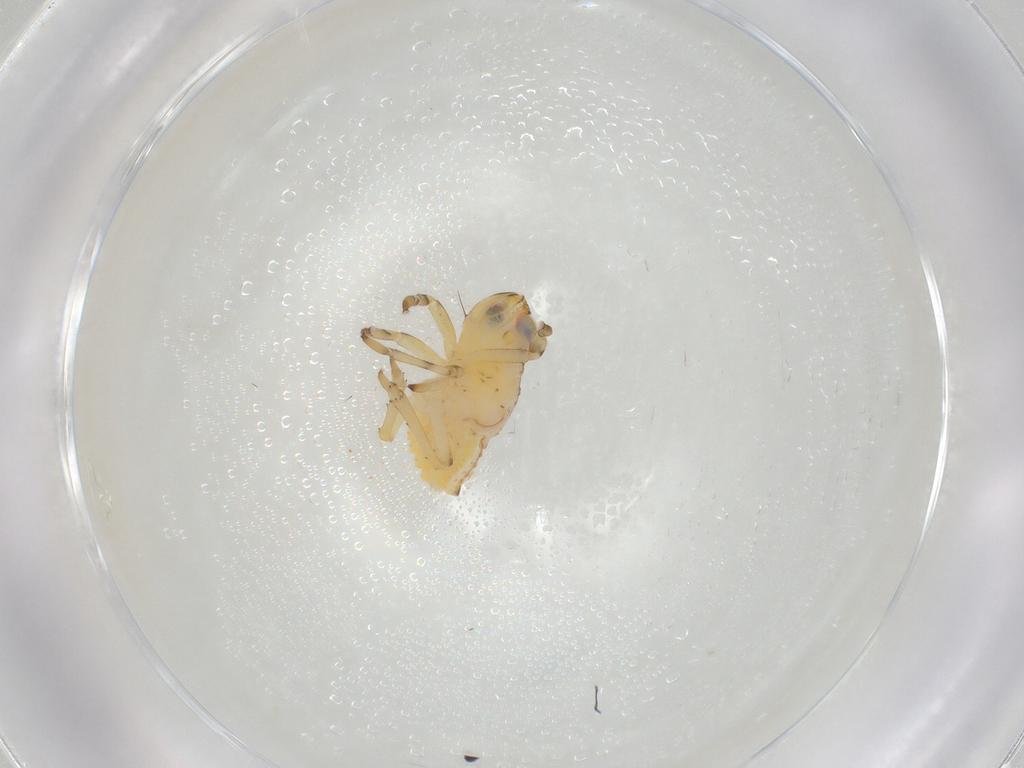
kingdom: Animalia
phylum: Arthropoda
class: Insecta
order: Hemiptera
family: Issidae
